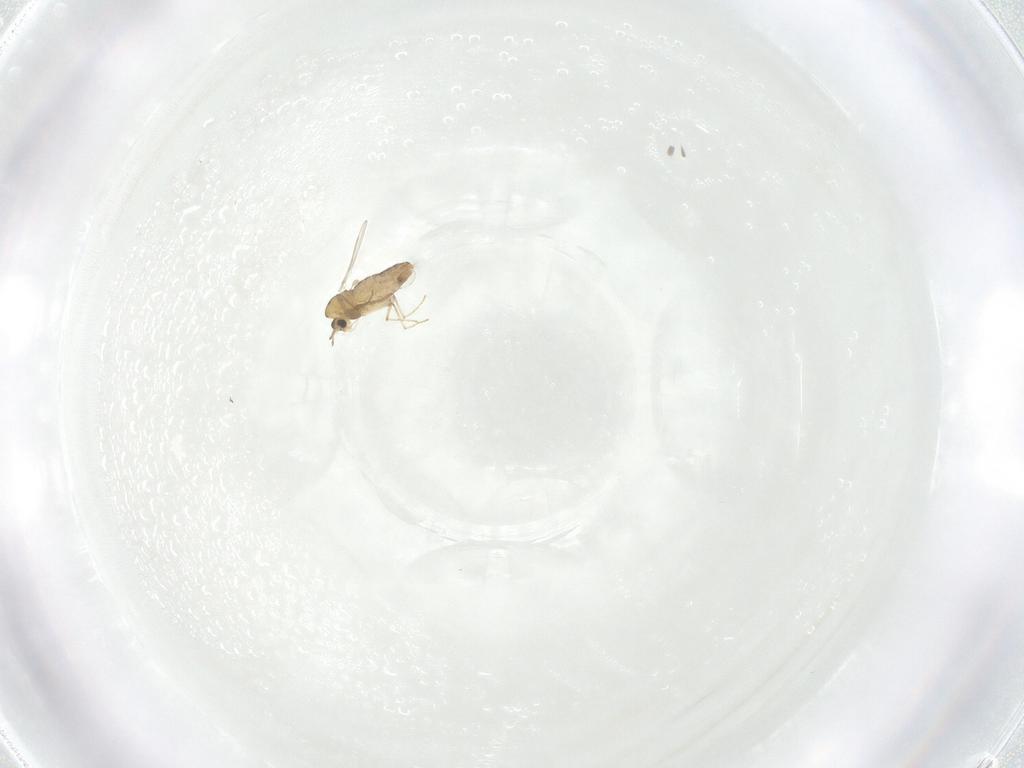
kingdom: Animalia
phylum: Arthropoda
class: Insecta
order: Diptera
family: Chironomidae
